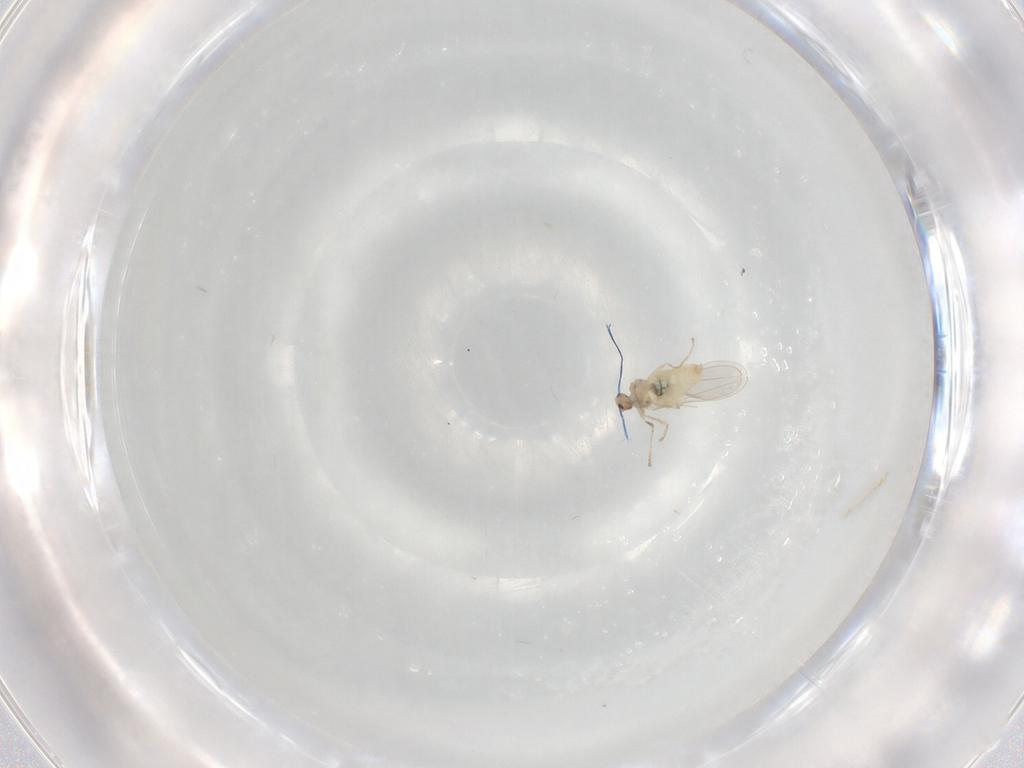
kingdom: Animalia
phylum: Arthropoda
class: Insecta
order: Diptera
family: Cecidomyiidae
